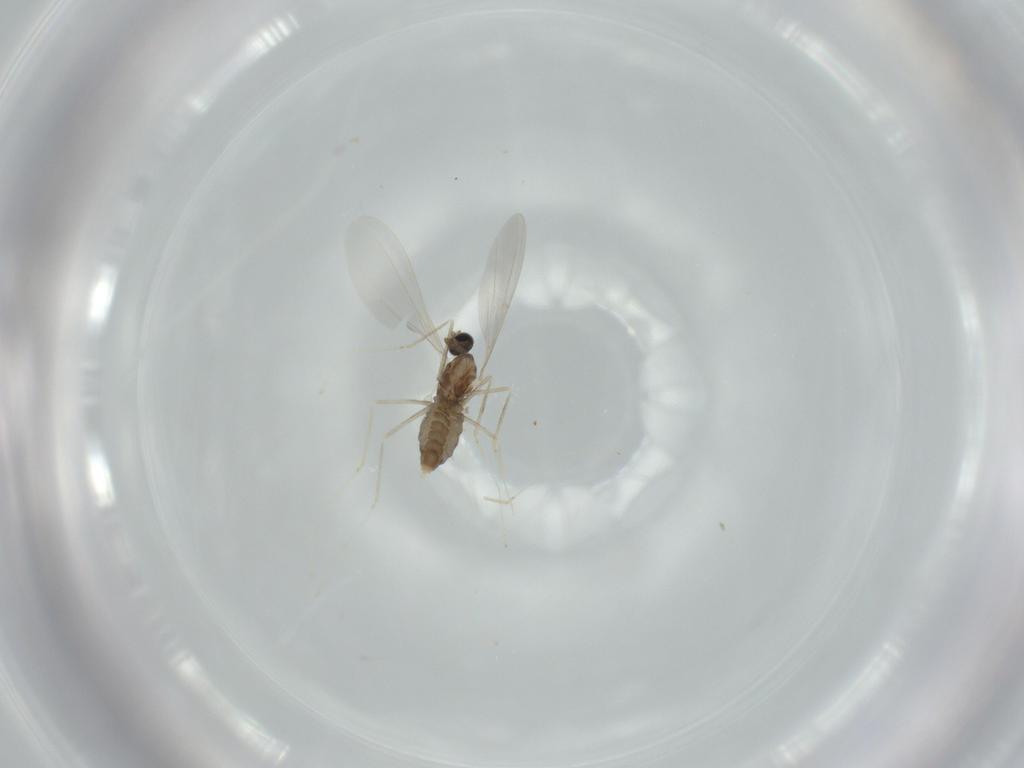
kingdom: Animalia
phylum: Arthropoda
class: Insecta
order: Diptera
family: Cecidomyiidae
